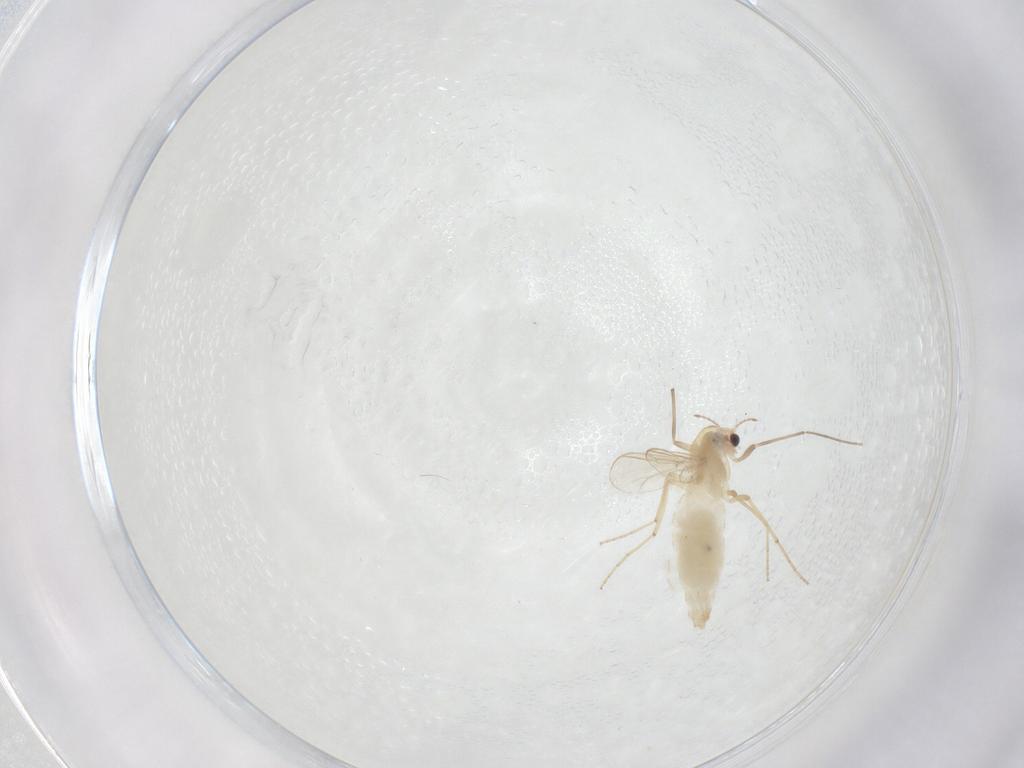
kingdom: Animalia
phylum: Arthropoda
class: Insecta
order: Diptera
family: Chironomidae
